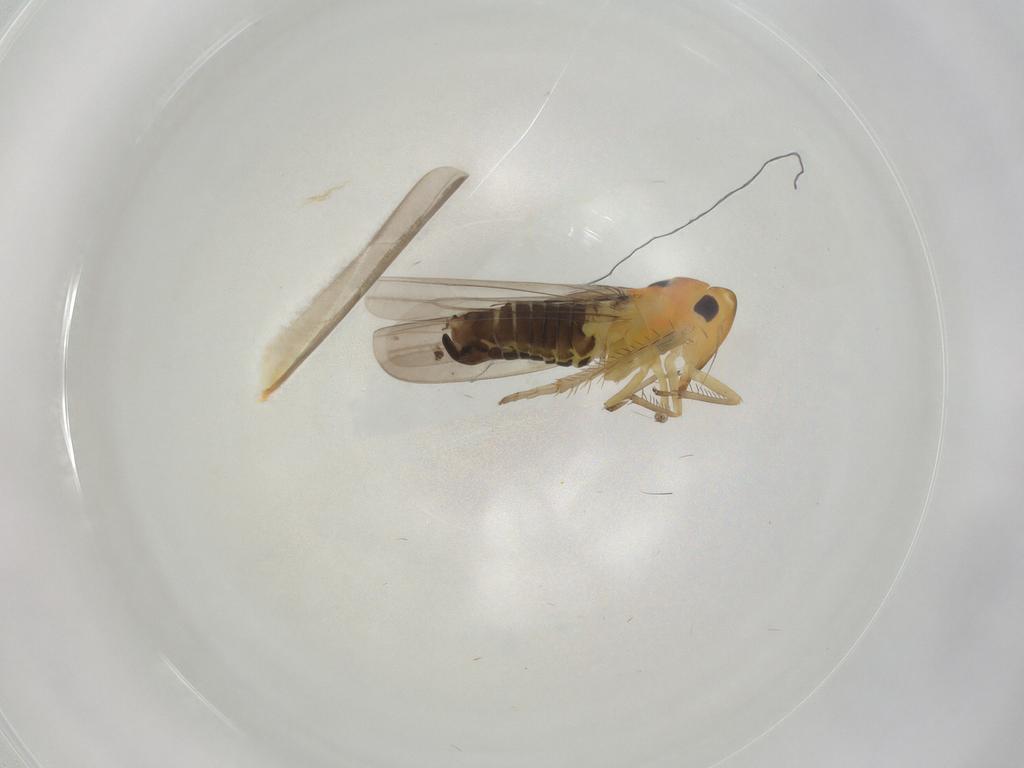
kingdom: Animalia
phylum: Arthropoda
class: Insecta
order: Hemiptera
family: Cicadellidae
